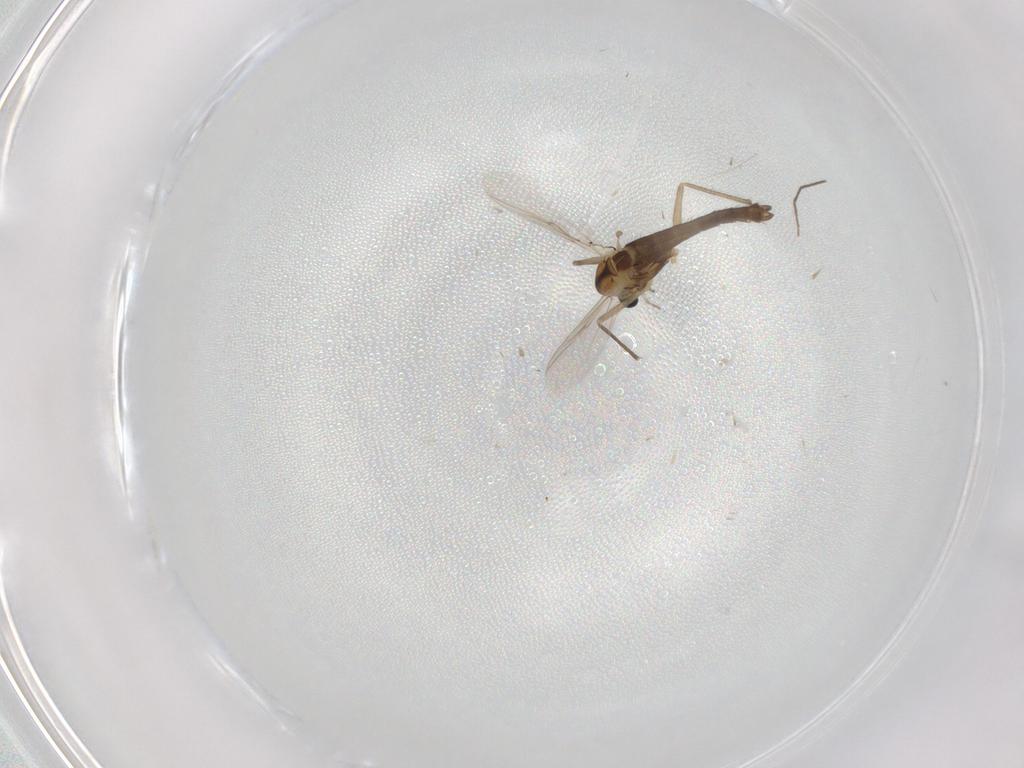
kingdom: Animalia
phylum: Arthropoda
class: Insecta
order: Diptera
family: Chironomidae
